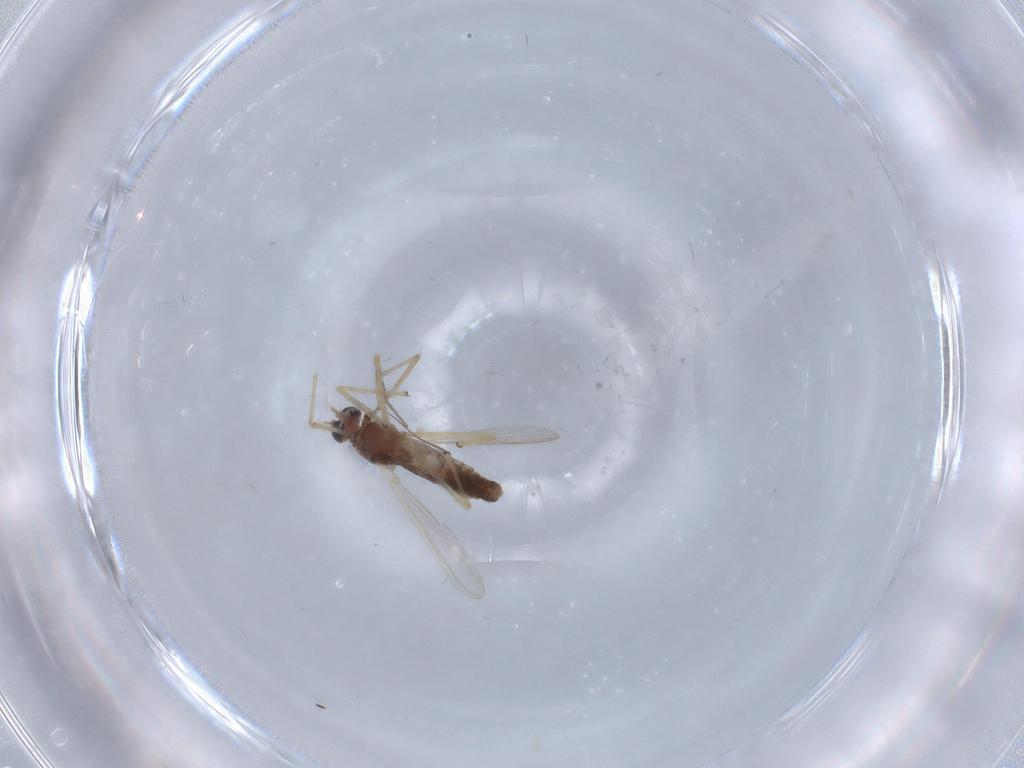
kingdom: Animalia
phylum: Arthropoda
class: Insecta
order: Diptera
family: Chironomidae
